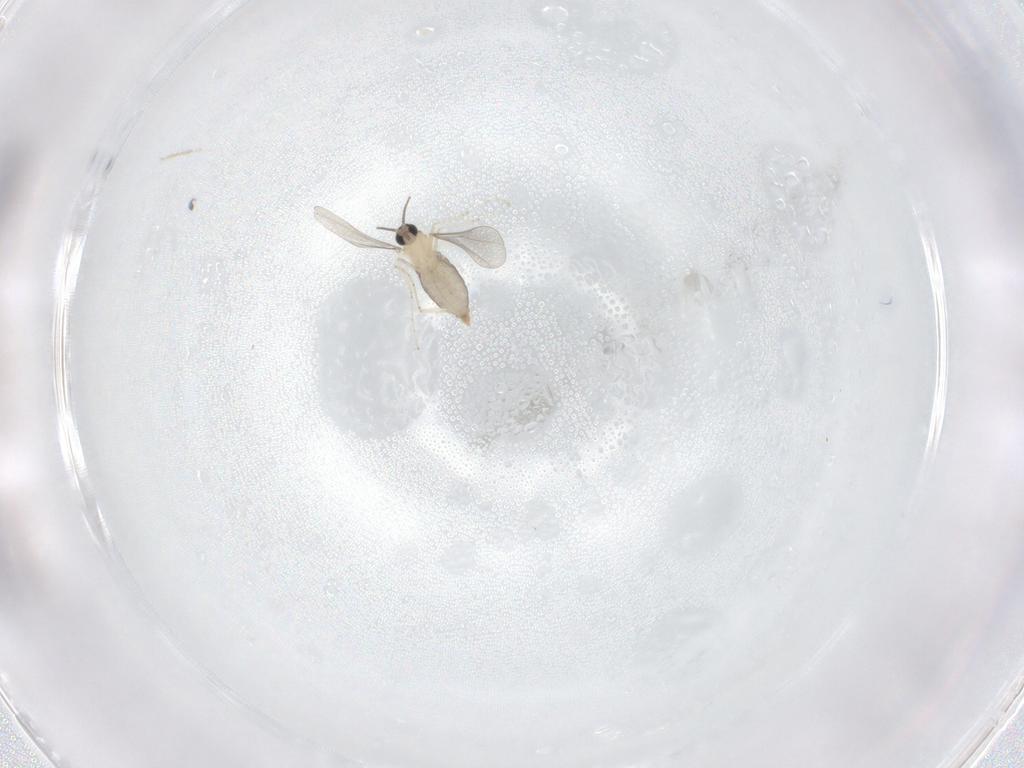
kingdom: Animalia
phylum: Arthropoda
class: Insecta
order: Diptera
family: Cecidomyiidae
